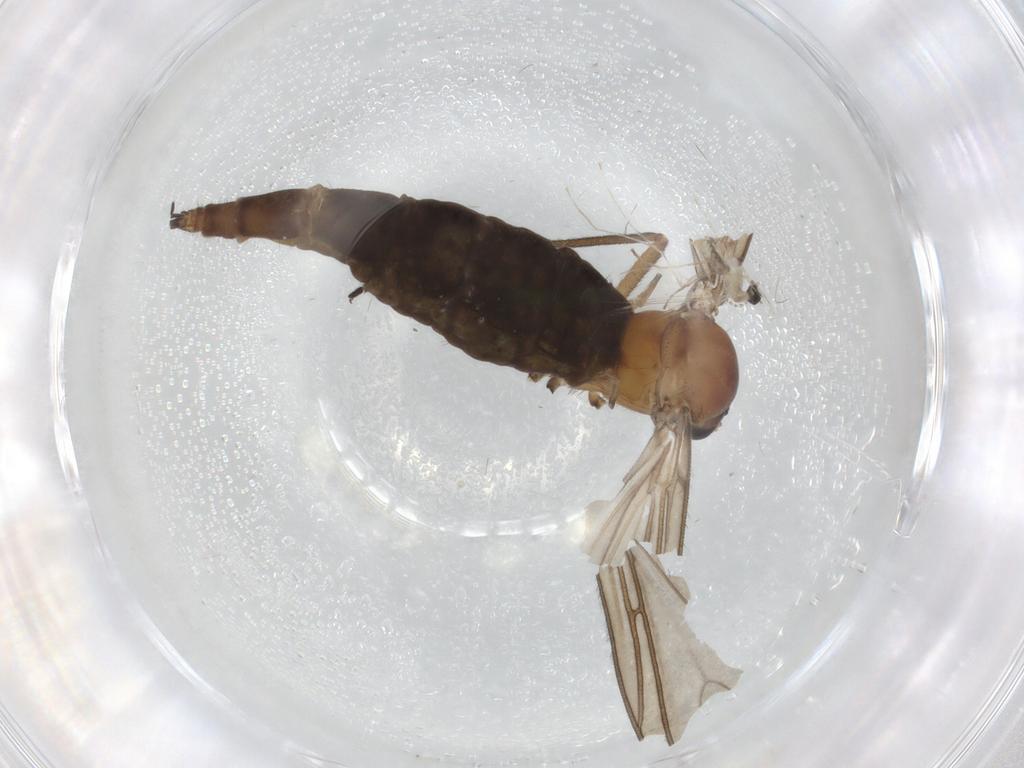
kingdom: Animalia
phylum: Arthropoda
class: Insecta
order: Diptera
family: Sciaridae
